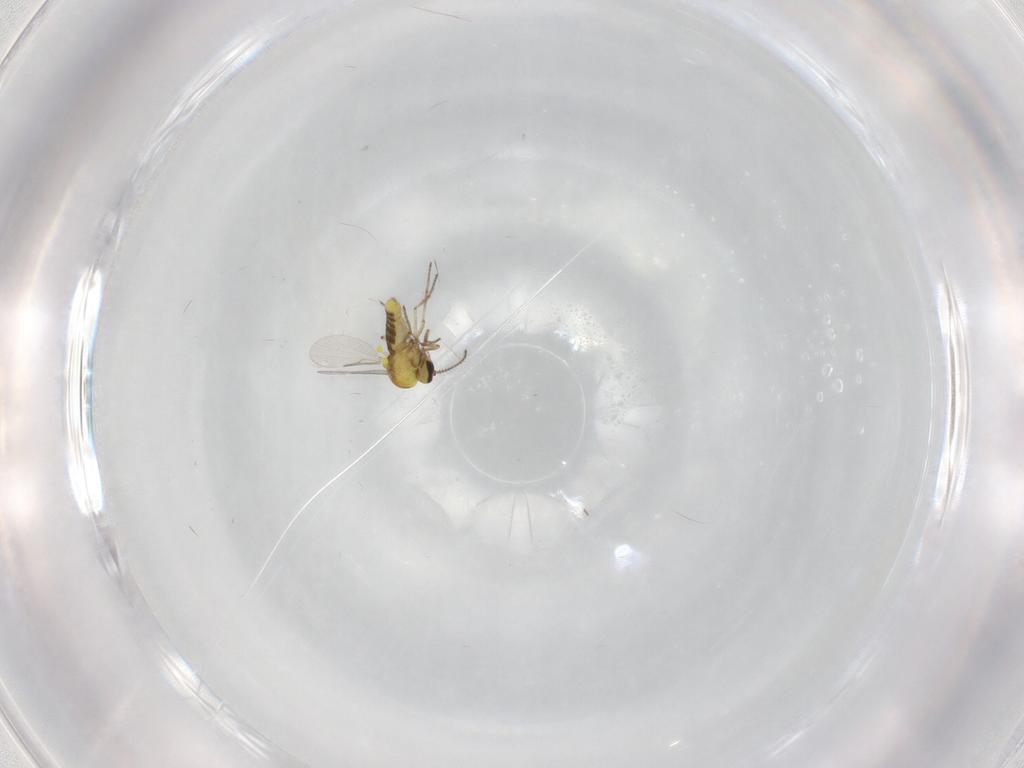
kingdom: Animalia
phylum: Arthropoda
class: Insecta
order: Diptera
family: Ceratopogonidae
